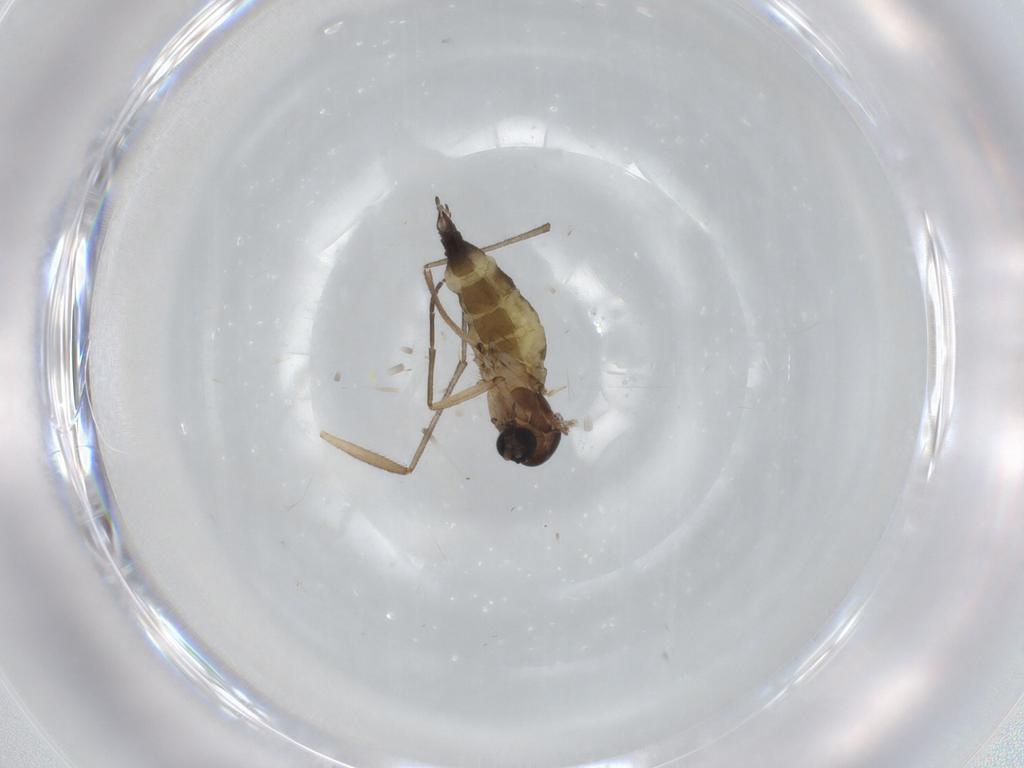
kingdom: Animalia
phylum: Arthropoda
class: Insecta
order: Diptera
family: Sciaridae
